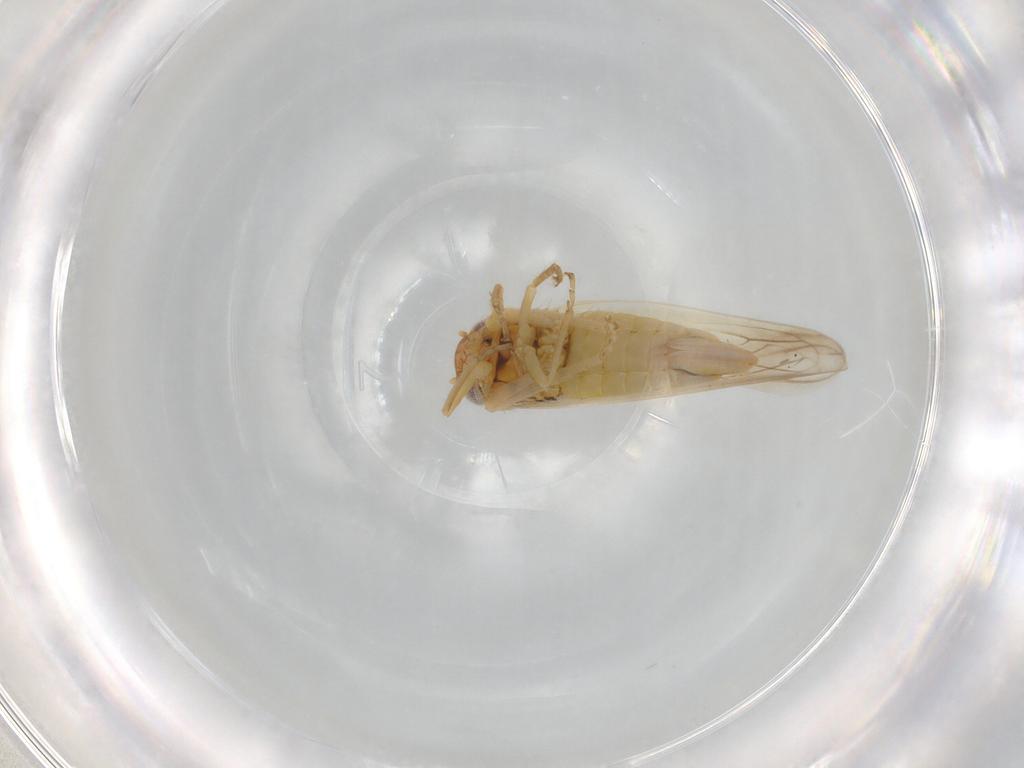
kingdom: Animalia
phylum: Arthropoda
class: Insecta
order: Hemiptera
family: Cicadellidae
